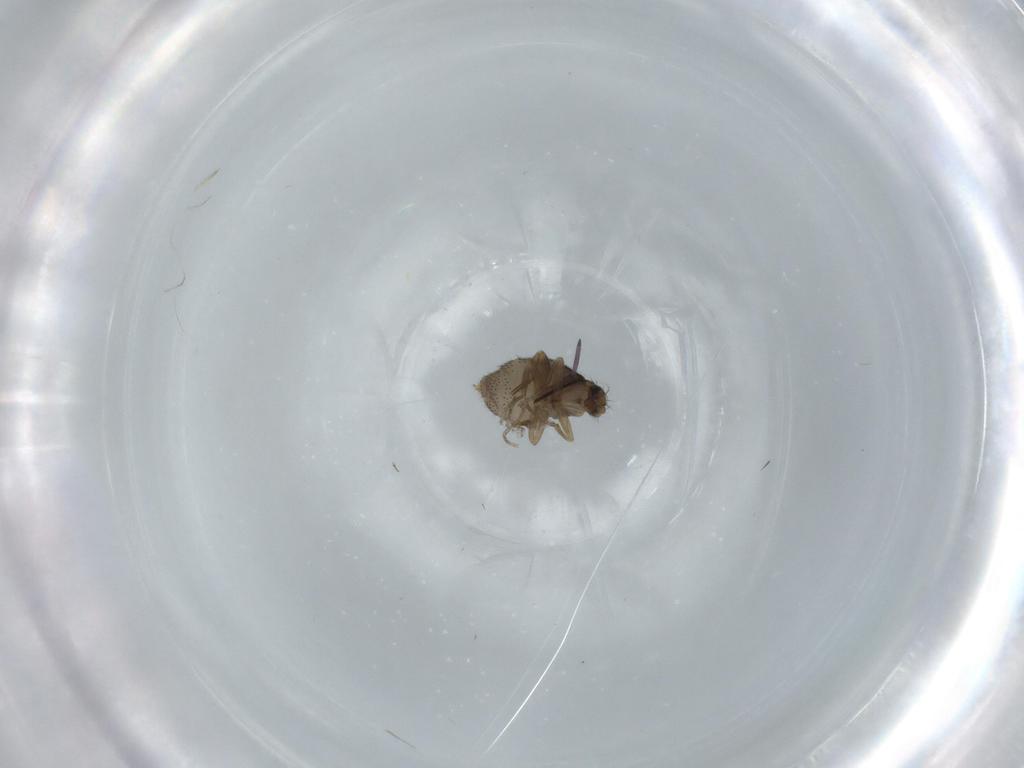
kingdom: Animalia
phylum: Arthropoda
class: Insecta
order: Diptera
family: Phoridae
